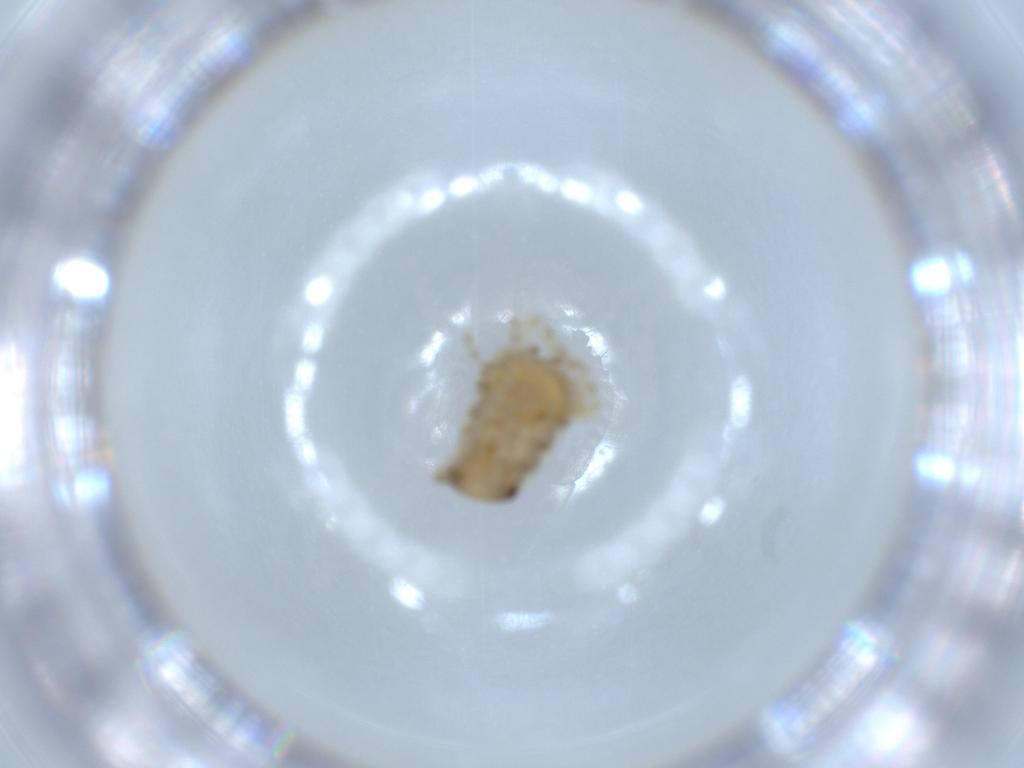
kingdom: Animalia
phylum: Arthropoda
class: Insecta
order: Blattodea
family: Ectobiidae
